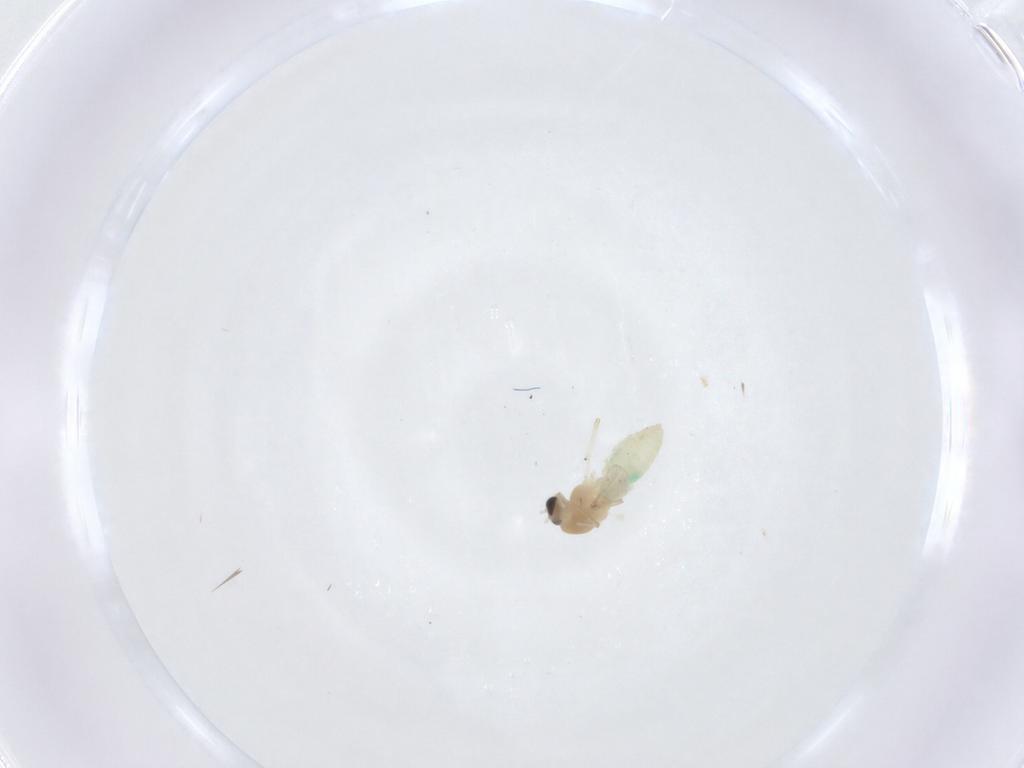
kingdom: Animalia
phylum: Arthropoda
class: Insecta
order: Diptera
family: Chironomidae
